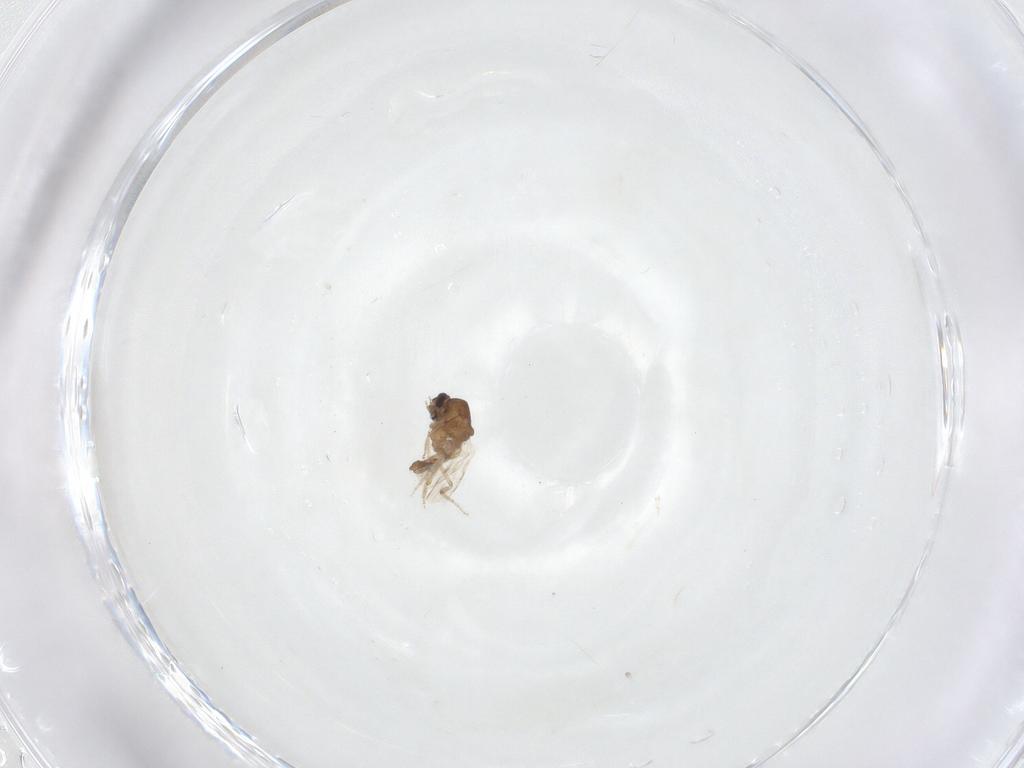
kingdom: Animalia
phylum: Arthropoda
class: Insecta
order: Diptera
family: Ceratopogonidae
